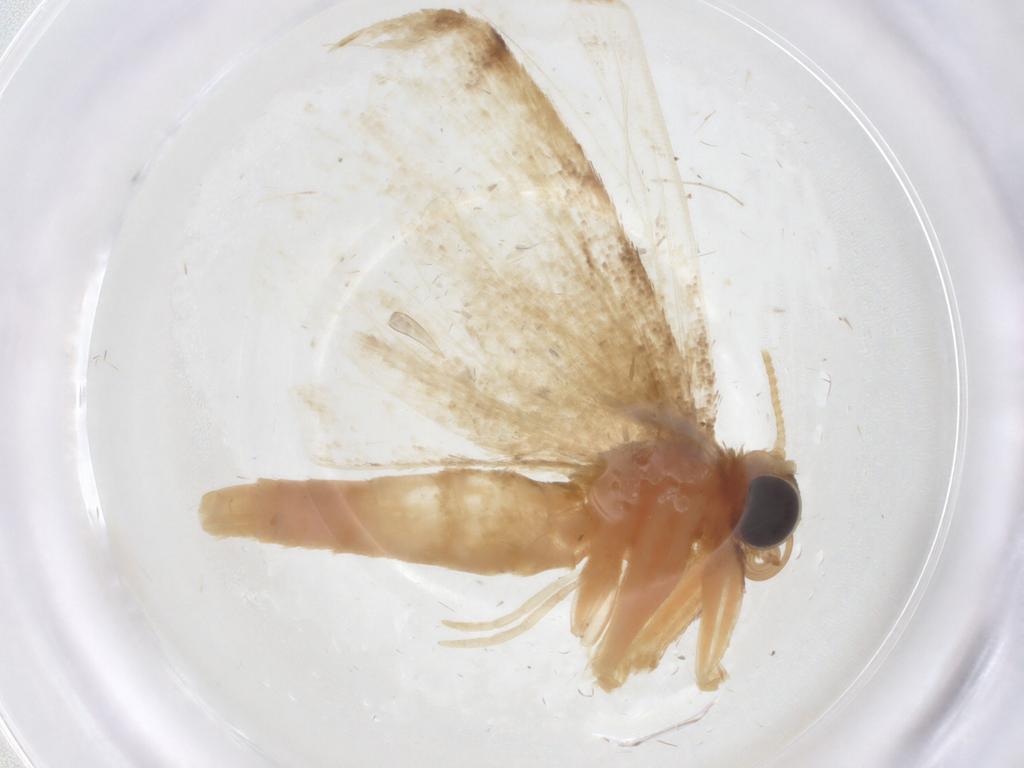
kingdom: Animalia
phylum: Arthropoda
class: Insecta
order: Lepidoptera
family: Geometridae
